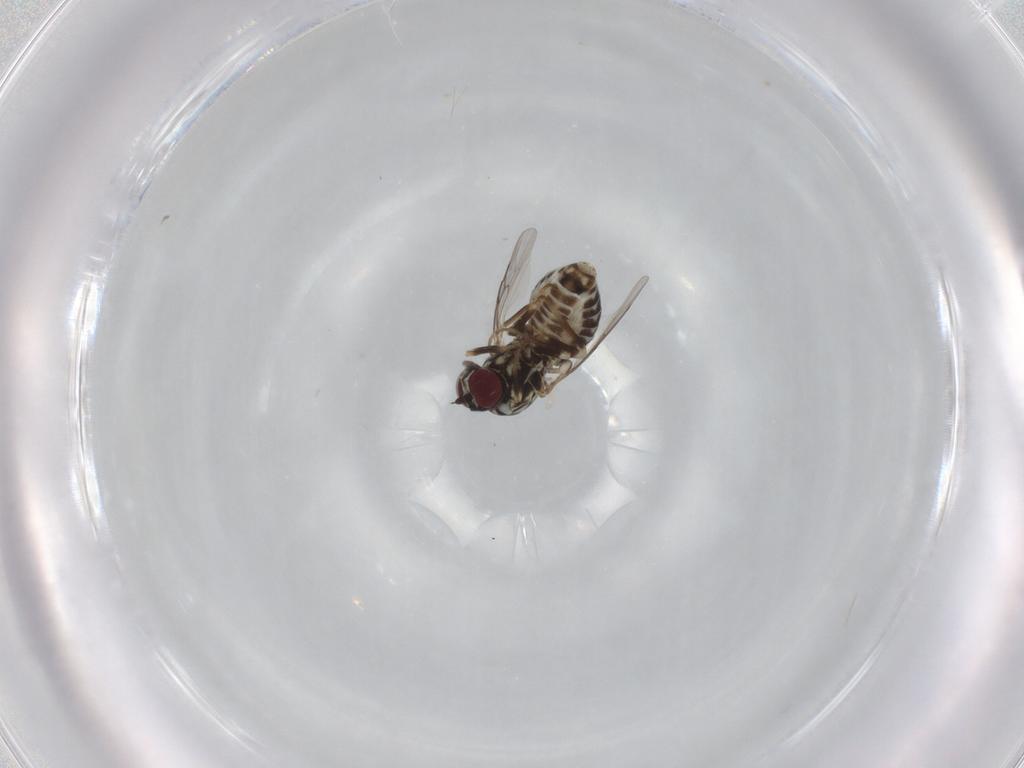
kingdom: Animalia
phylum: Arthropoda
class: Insecta
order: Diptera
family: Bombyliidae
